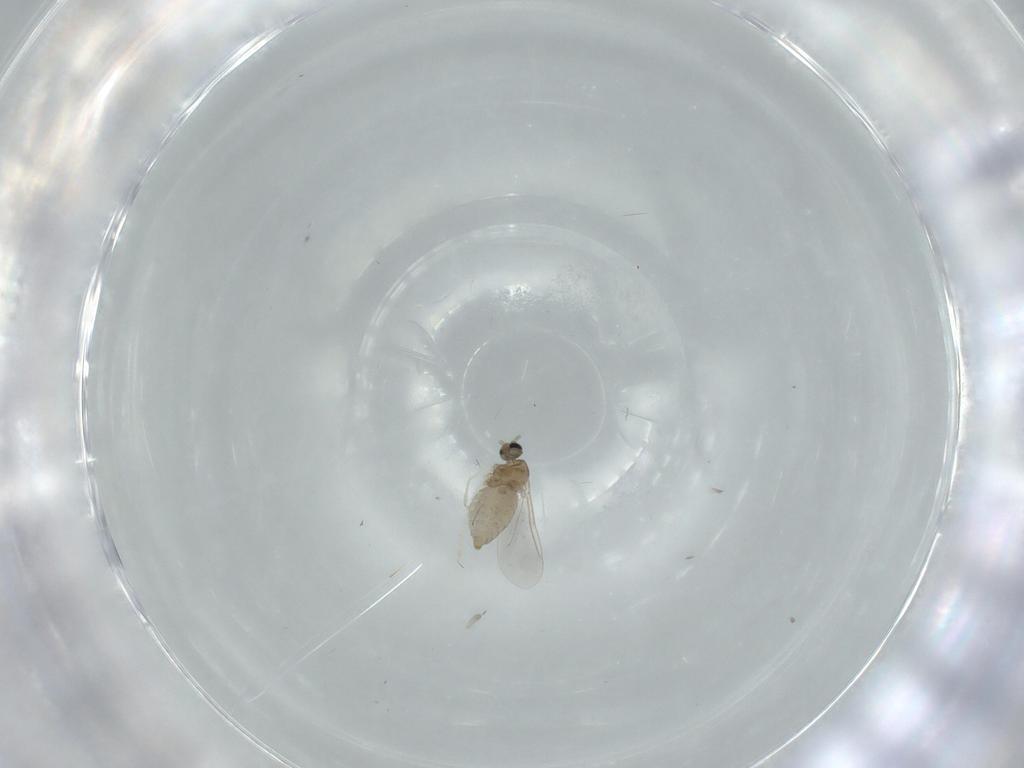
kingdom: Animalia
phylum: Arthropoda
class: Insecta
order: Diptera
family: Cecidomyiidae
